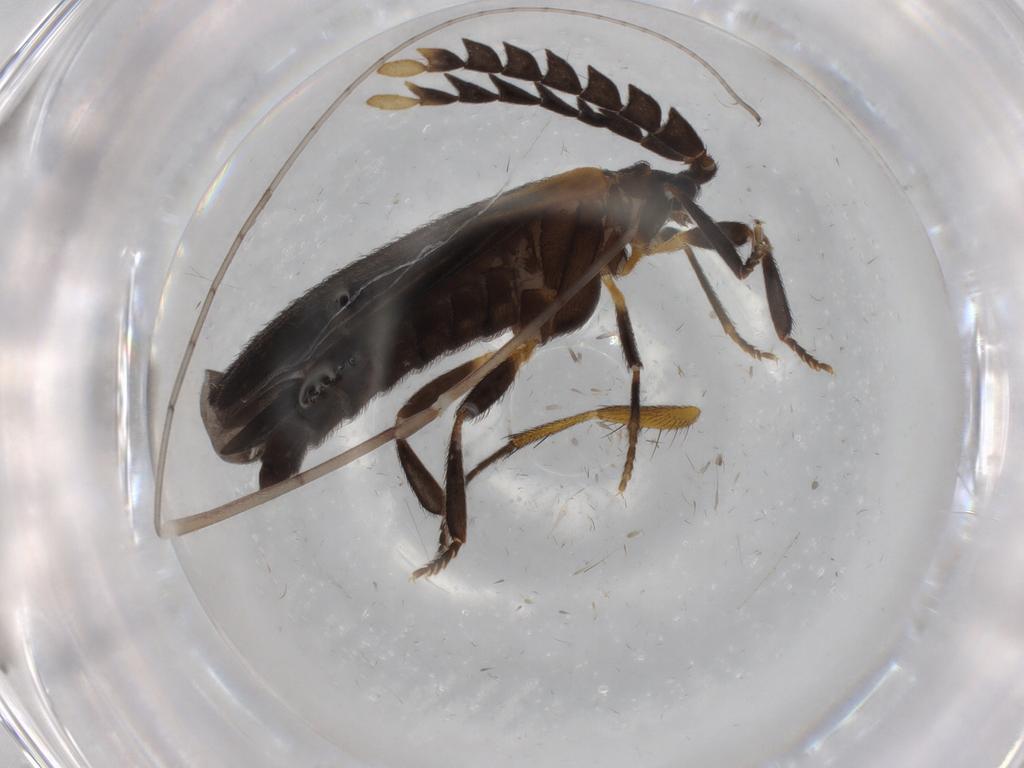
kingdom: Animalia
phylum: Arthropoda
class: Insecta
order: Coleoptera
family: Lycidae
